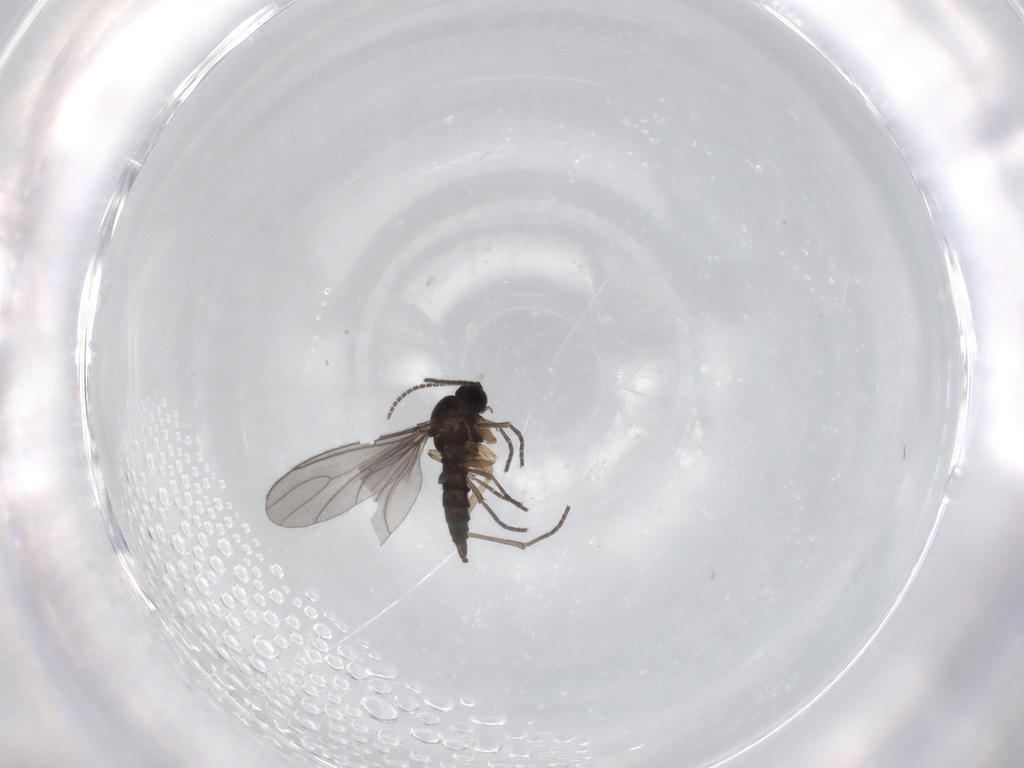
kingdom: Animalia
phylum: Arthropoda
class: Insecta
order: Diptera
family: Sciaridae
